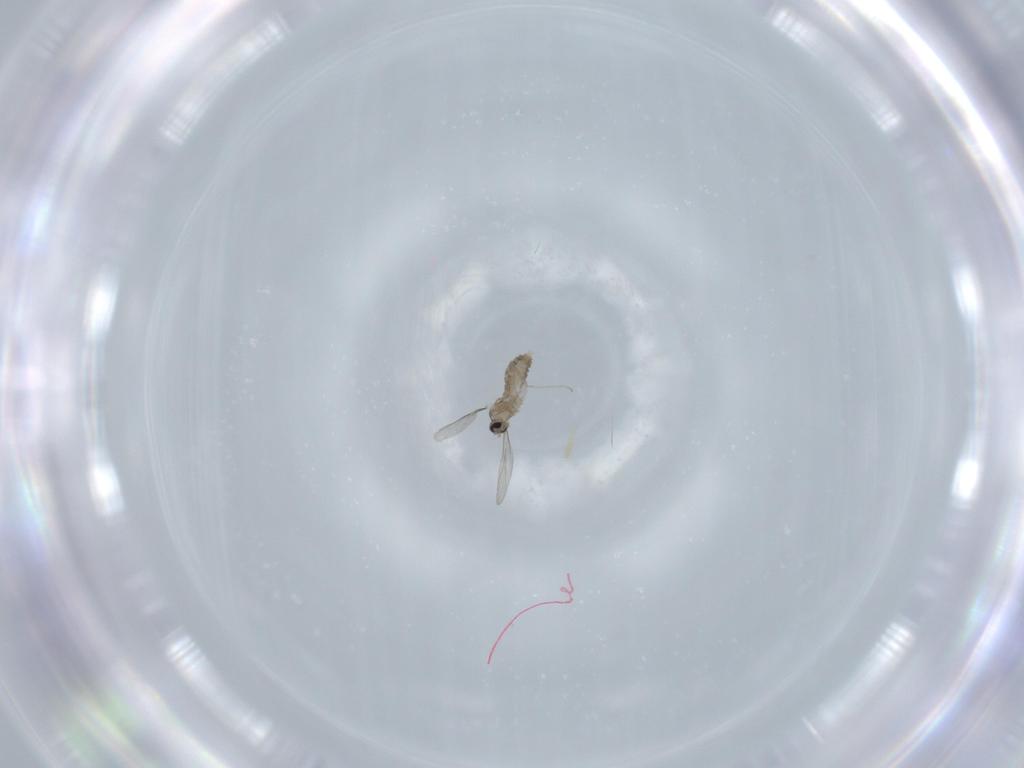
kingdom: Animalia
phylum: Arthropoda
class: Insecta
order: Diptera
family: Cecidomyiidae
